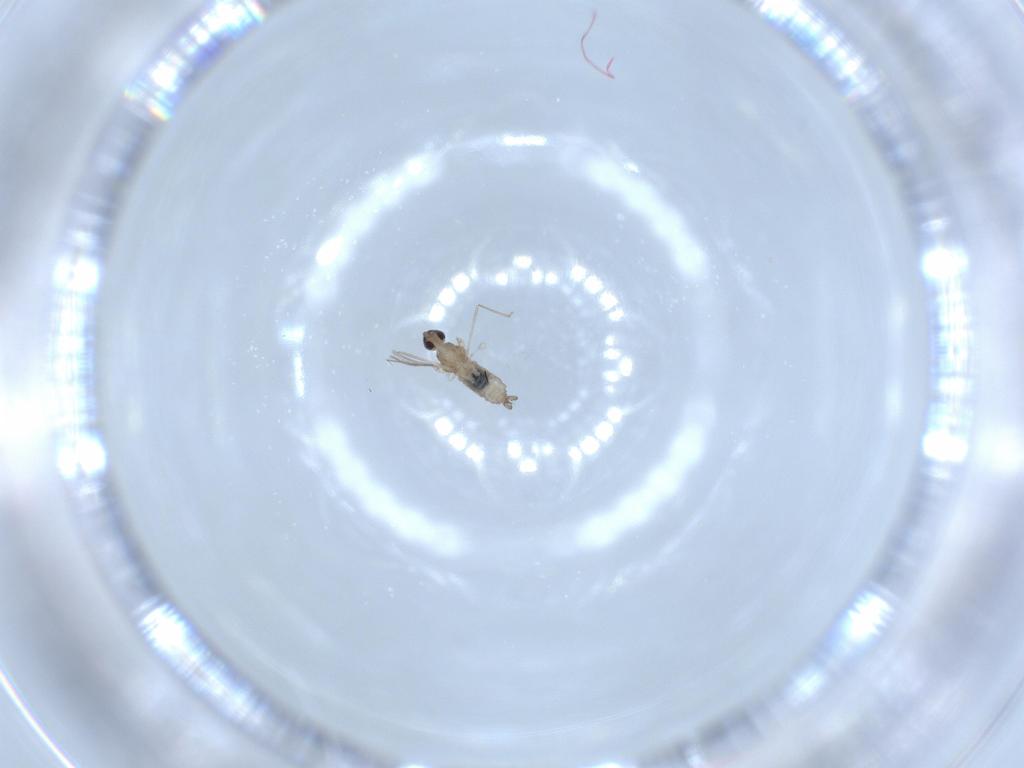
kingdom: Animalia
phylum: Arthropoda
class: Insecta
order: Diptera
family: Cecidomyiidae
